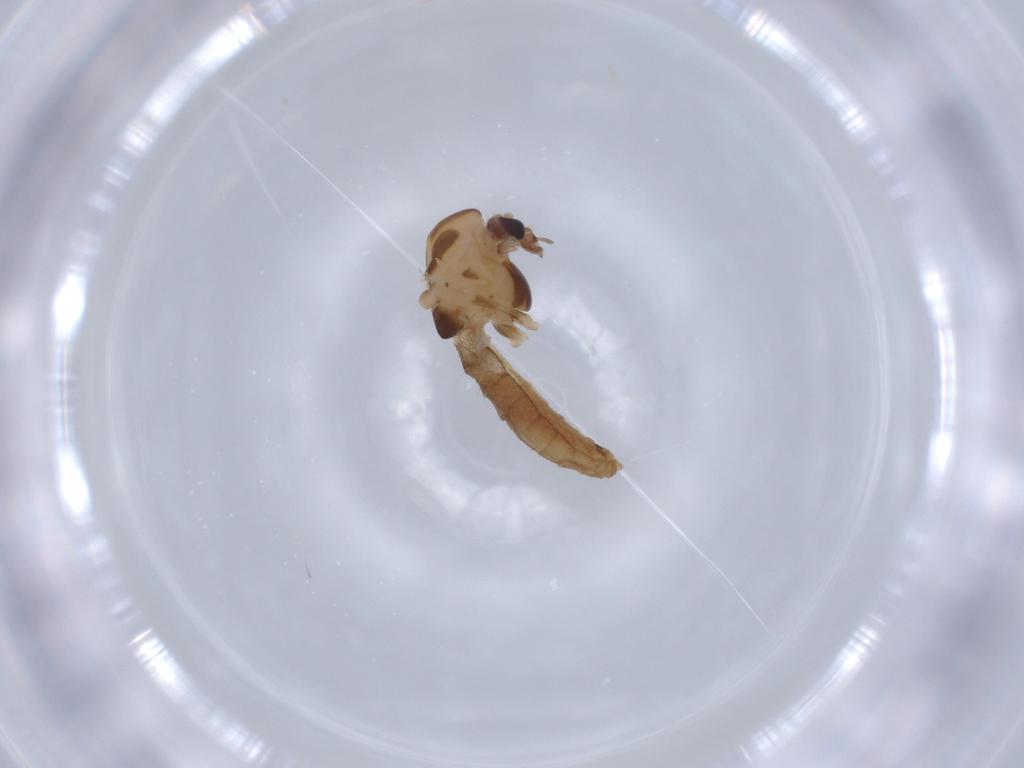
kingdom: Animalia
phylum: Arthropoda
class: Insecta
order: Diptera
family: Chironomidae
